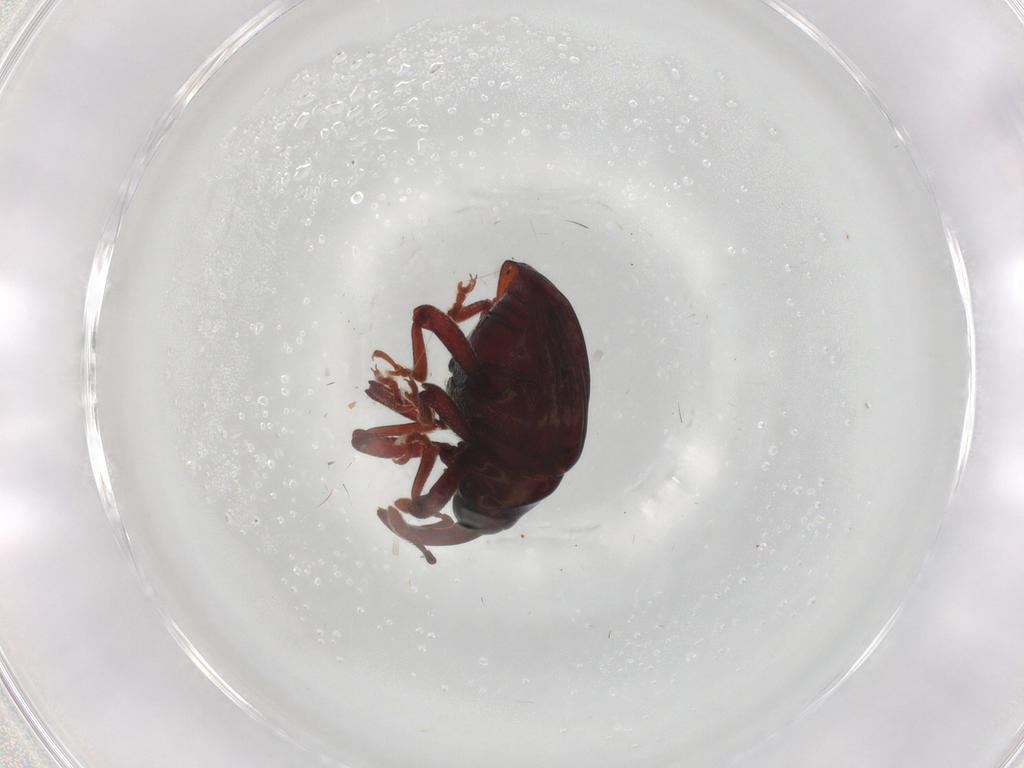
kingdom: Animalia
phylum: Arthropoda
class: Insecta
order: Coleoptera
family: Mordellidae
